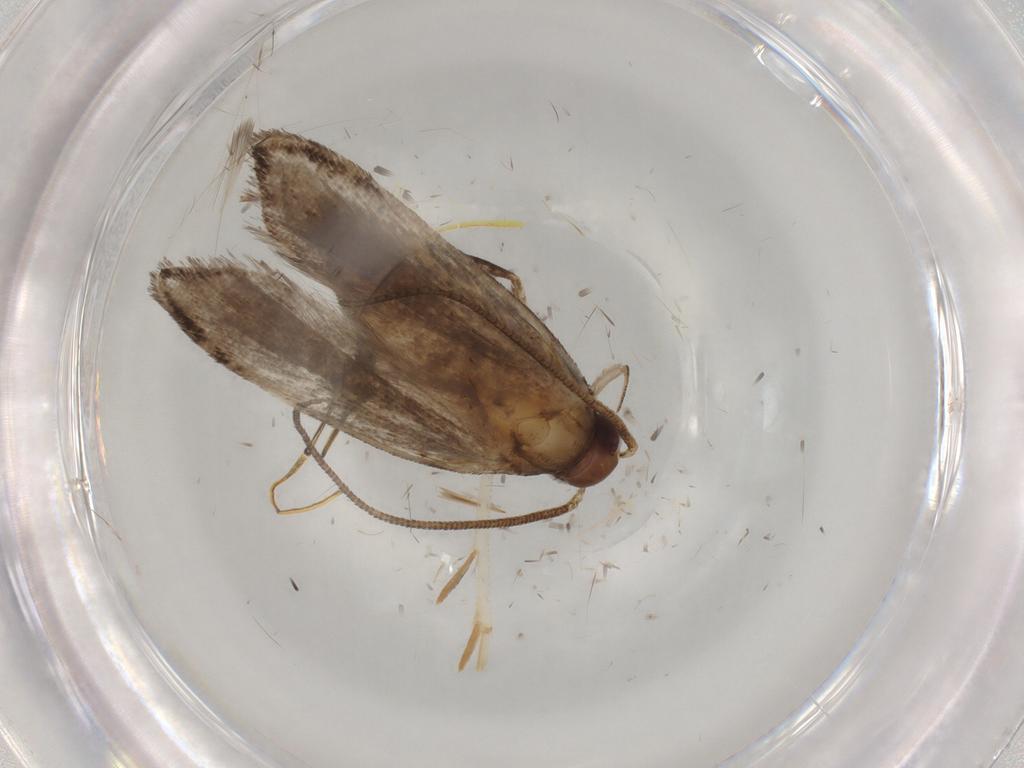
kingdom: Animalia
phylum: Arthropoda
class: Insecta
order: Lepidoptera
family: Gelechiidae
